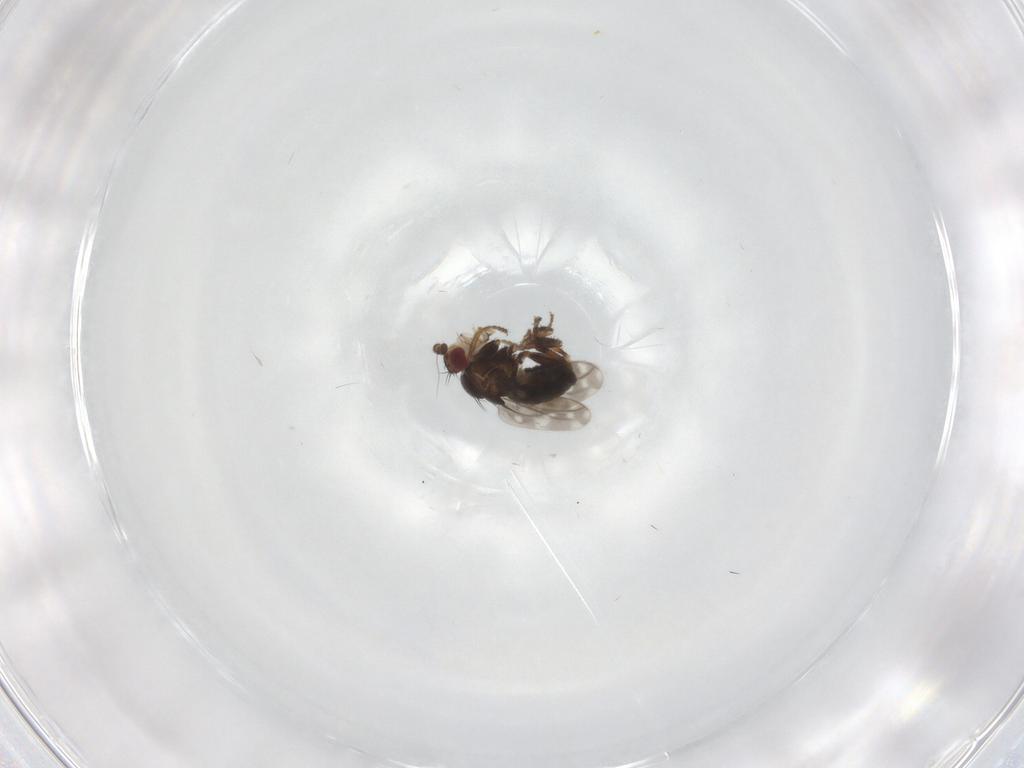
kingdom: Animalia
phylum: Arthropoda
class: Insecta
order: Diptera
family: Sphaeroceridae
